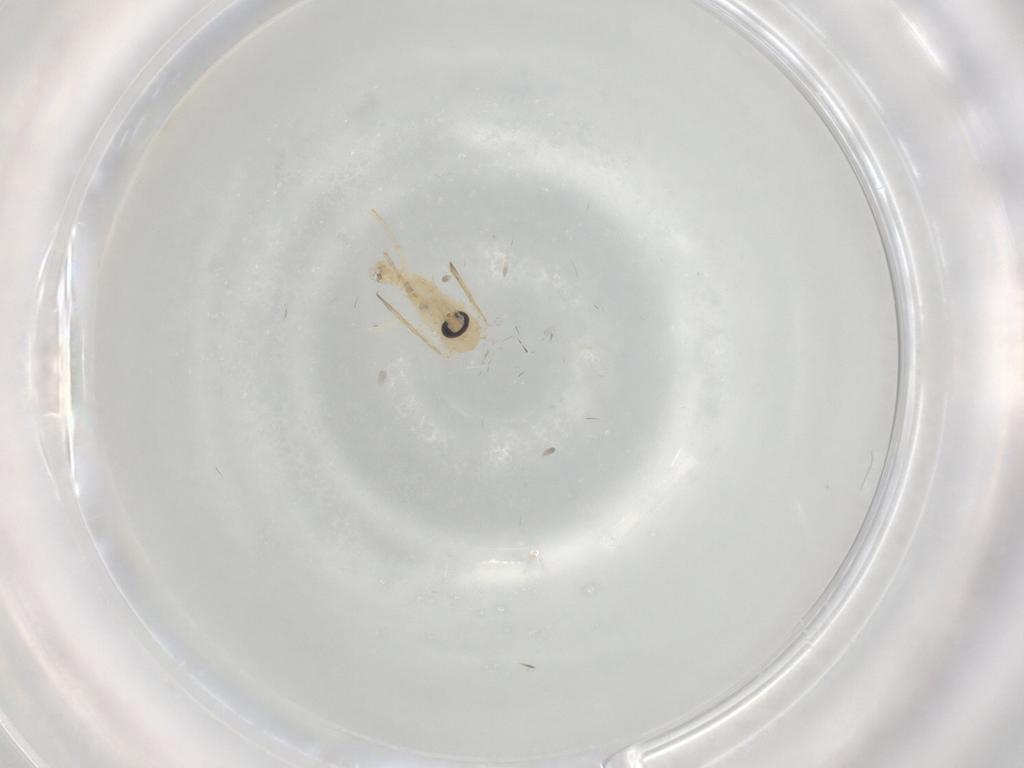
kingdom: Animalia
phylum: Arthropoda
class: Insecta
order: Diptera
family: Psychodidae
